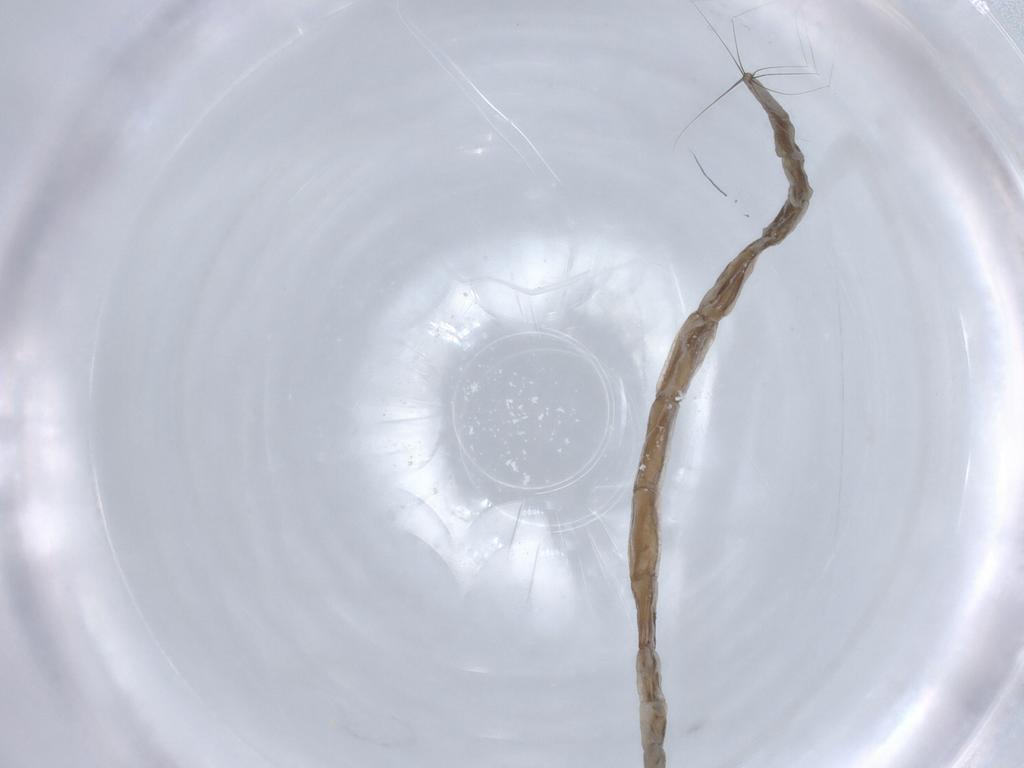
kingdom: Animalia
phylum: Arthropoda
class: Insecta
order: Diptera
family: Ceratopogonidae
